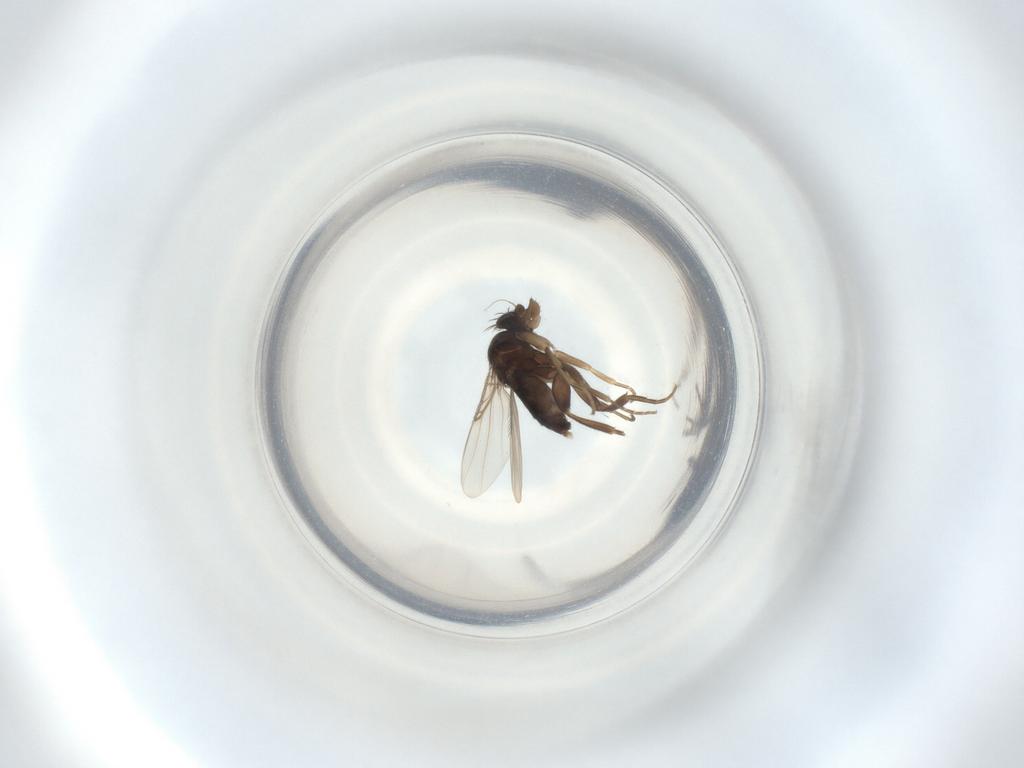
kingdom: Animalia
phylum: Arthropoda
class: Insecta
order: Diptera
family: Phoridae
